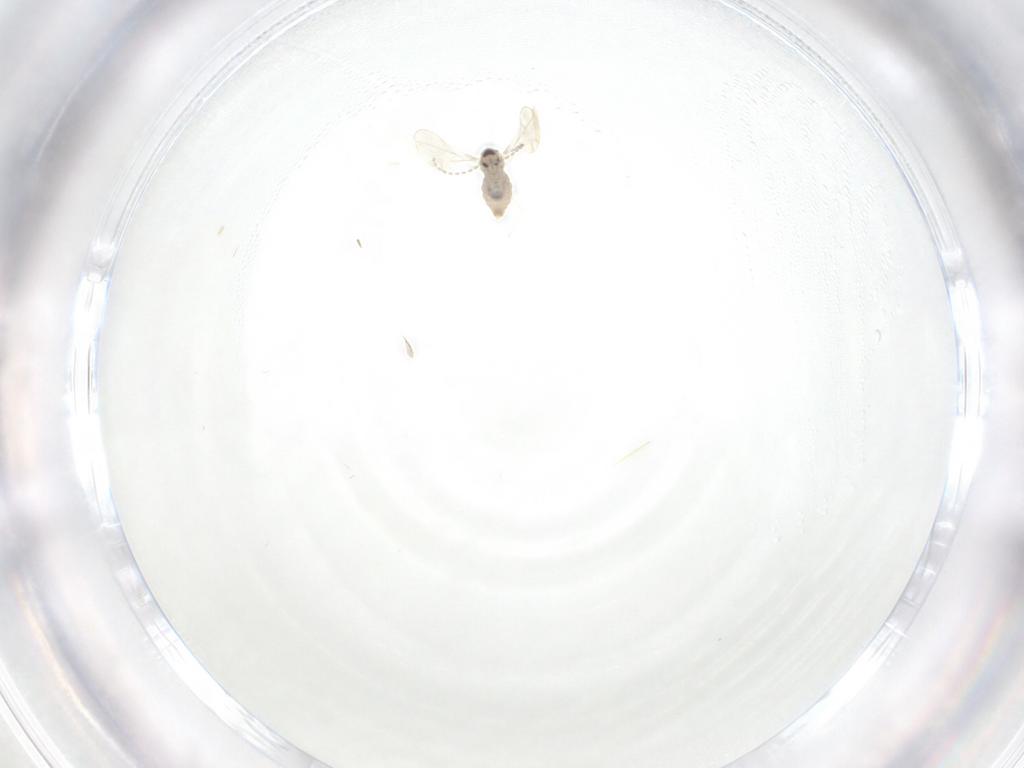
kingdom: Animalia
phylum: Arthropoda
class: Insecta
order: Diptera
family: Cecidomyiidae
